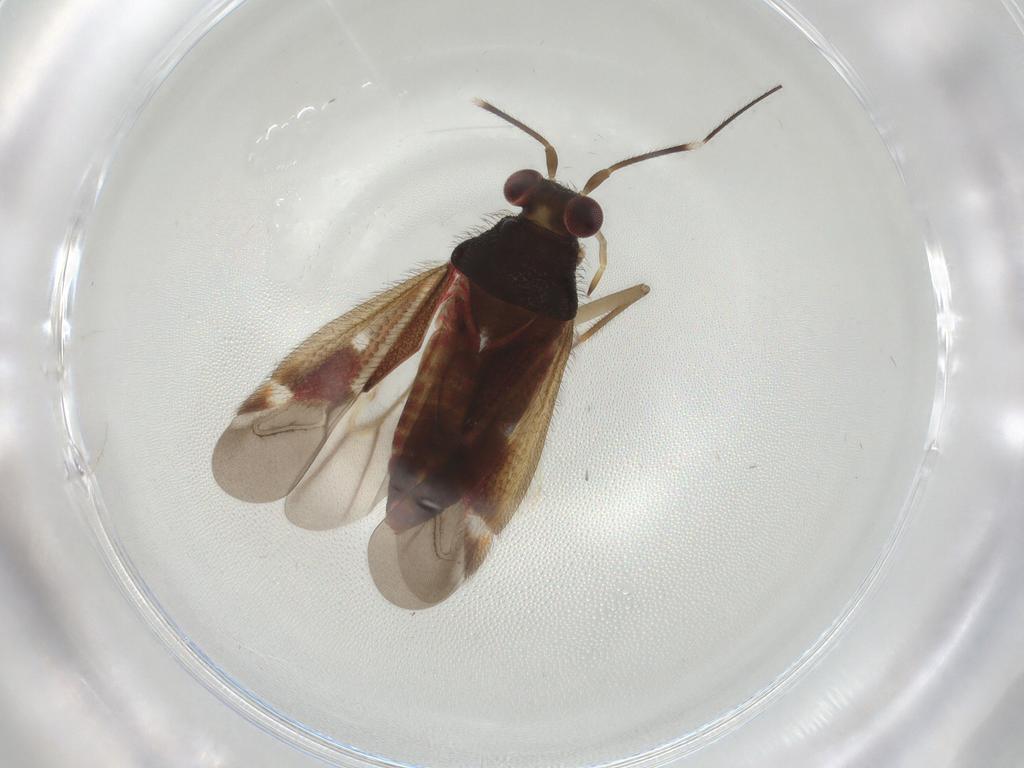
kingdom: Animalia
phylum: Arthropoda
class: Insecta
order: Hemiptera
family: Aleyrodidae
